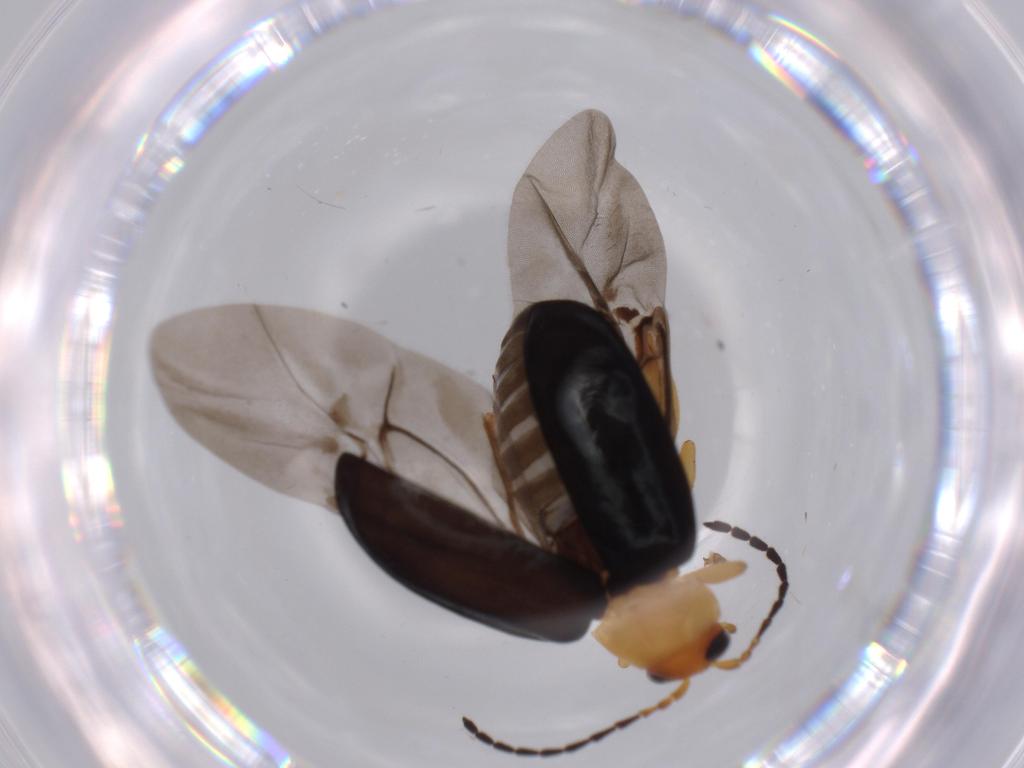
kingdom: Animalia
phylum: Arthropoda
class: Insecta
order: Coleoptera
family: Chrysomelidae
